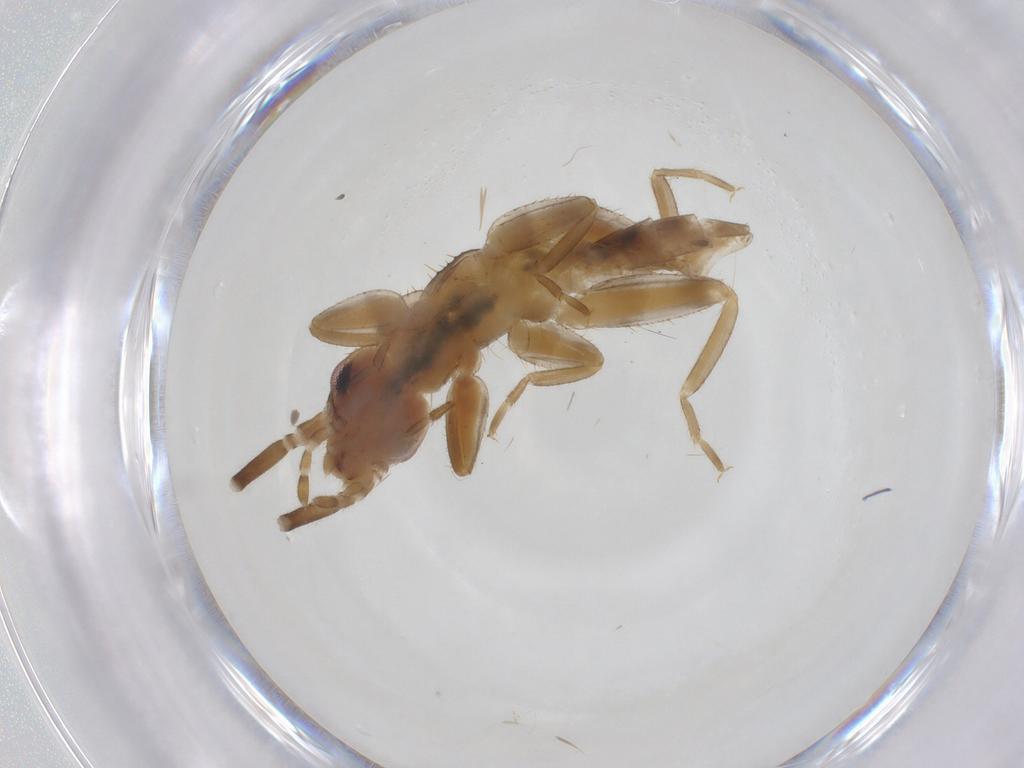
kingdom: Animalia
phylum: Arthropoda
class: Insecta
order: Coleoptera
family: Chrysomelidae
